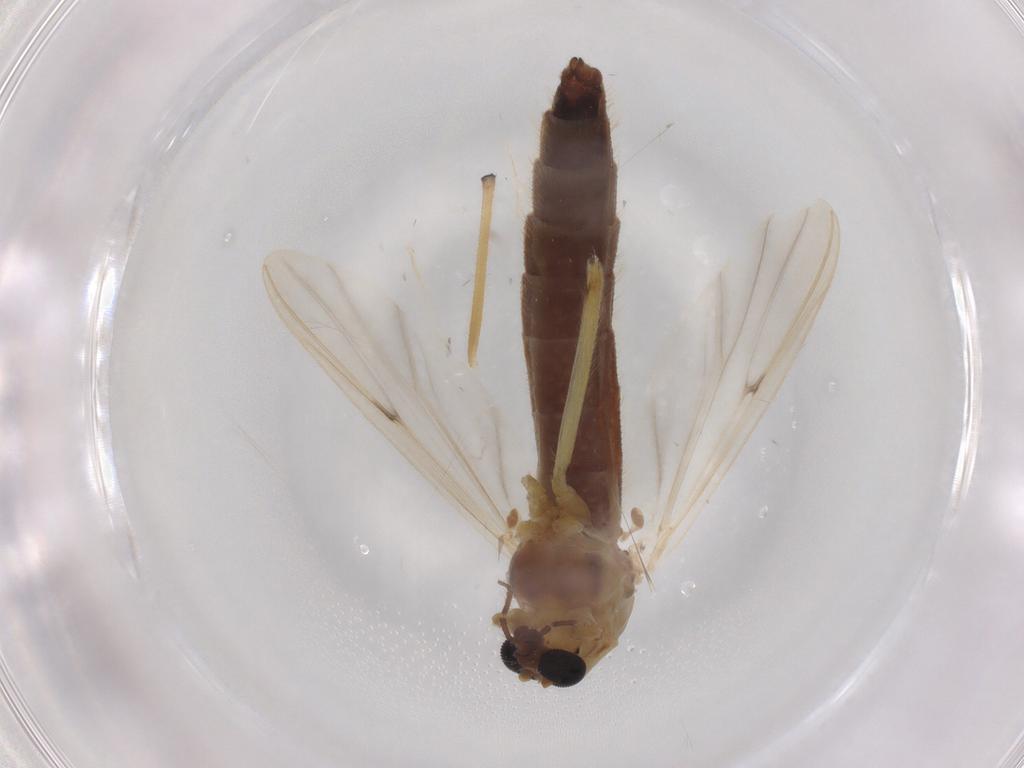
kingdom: Animalia
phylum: Arthropoda
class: Insecta
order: Diptera
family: Chironomidae
